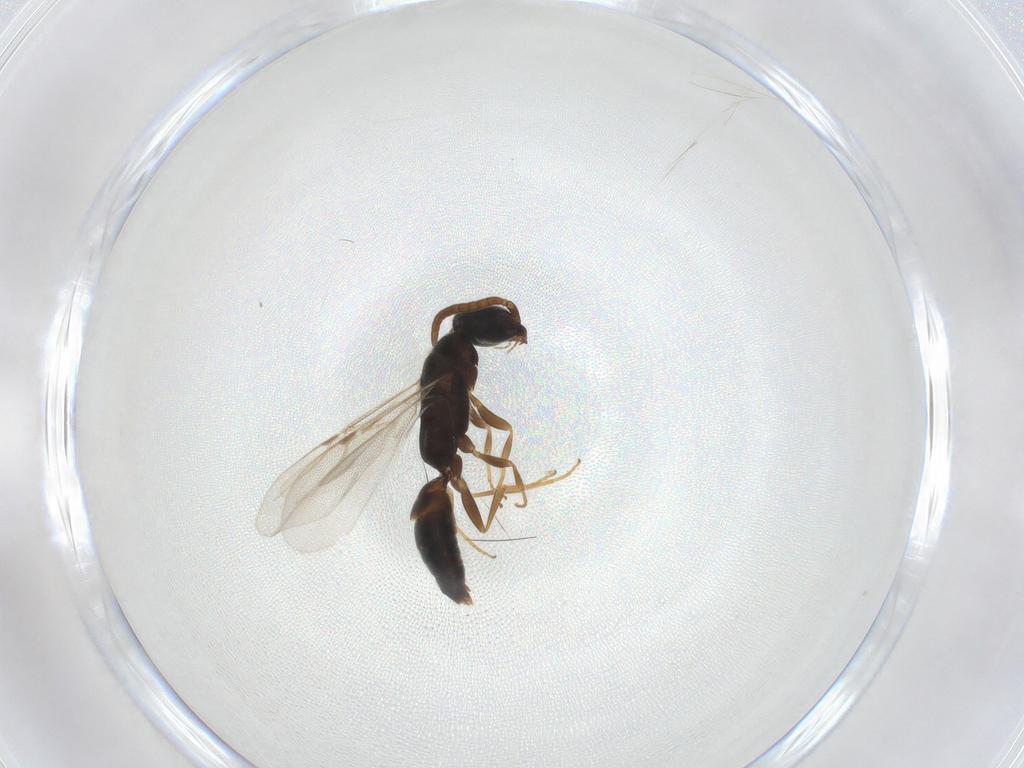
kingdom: Animalia
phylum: Arthropoda
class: Insecta
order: Hymenoptera
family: Bethylidae
